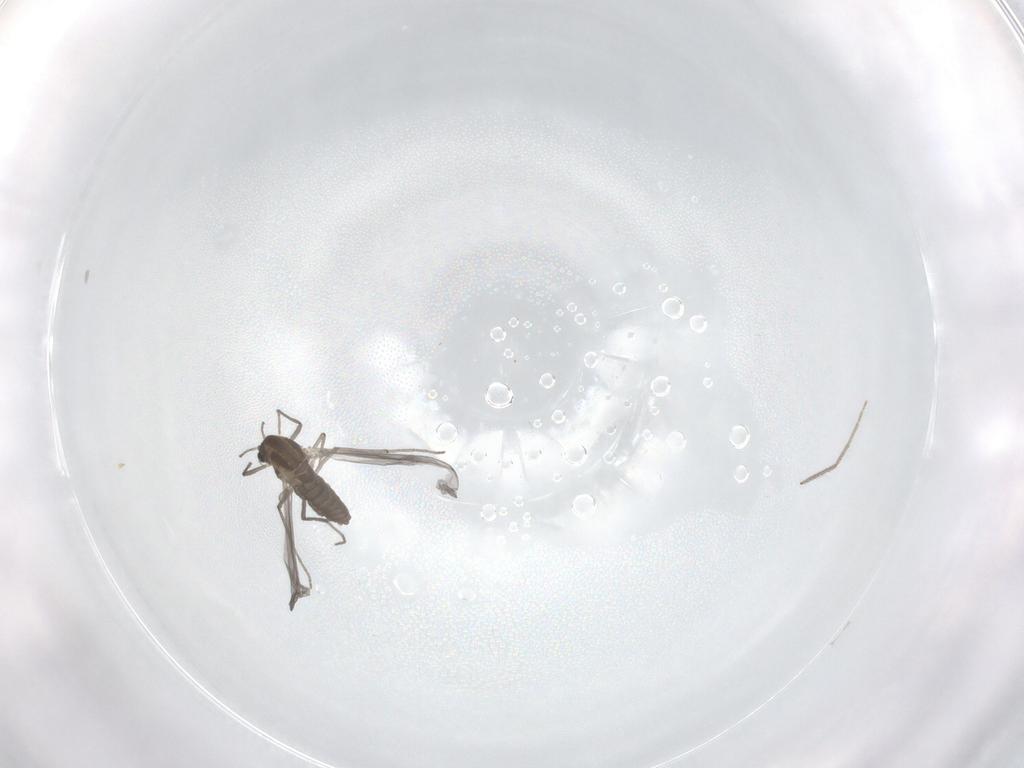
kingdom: Animalia
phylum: Arthropoda
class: Insecta
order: Diptera
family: Chironomidae
